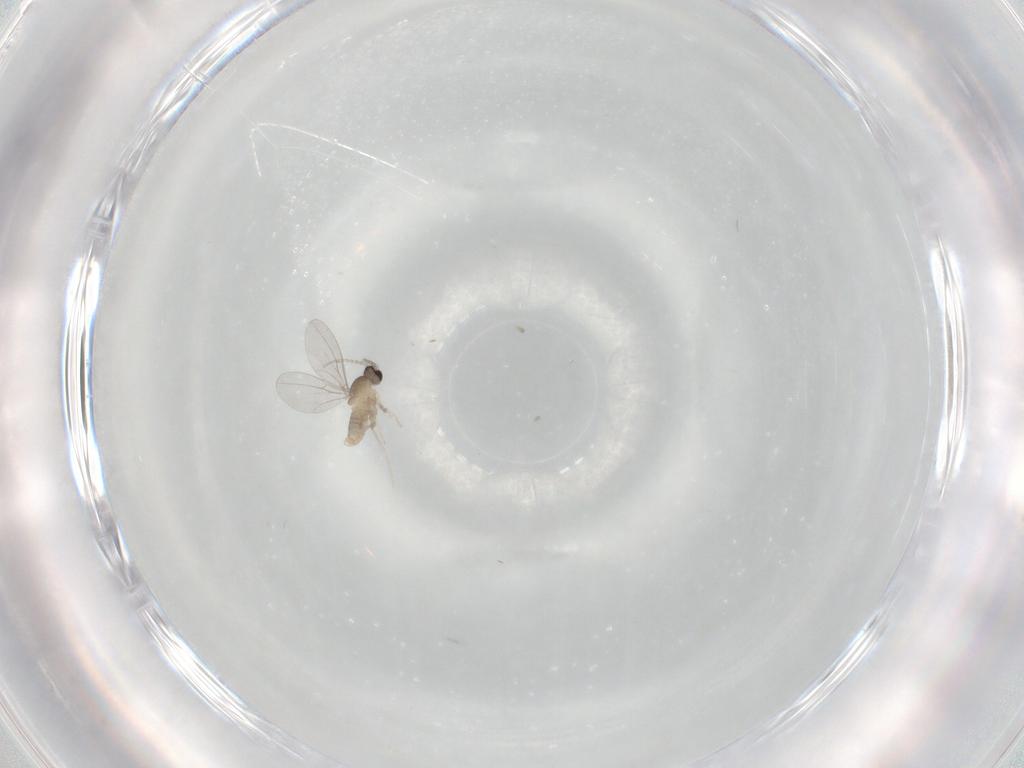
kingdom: Animalia
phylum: Arthropoda
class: Insecta
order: Diptera
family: Cecidomyiidae
